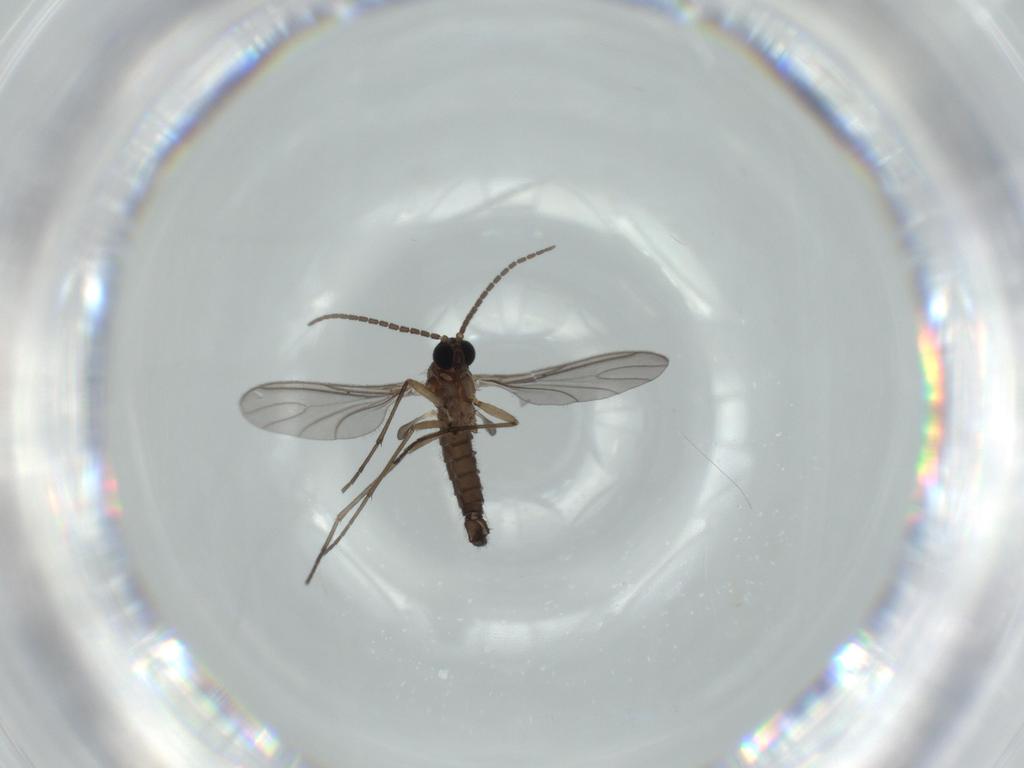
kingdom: Animalia
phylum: Arthropoda
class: Insecta
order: Diptera
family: Sciaridae
